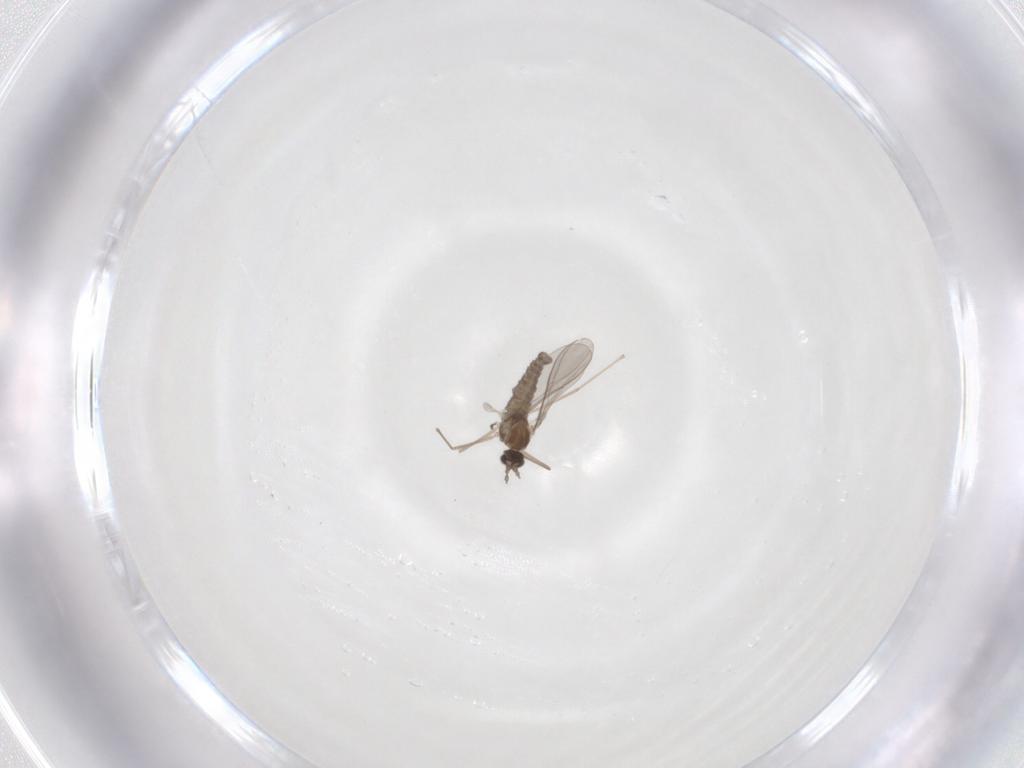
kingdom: Animalia
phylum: Arthropoda
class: Insecta
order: Diptera
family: Cecidomyiidae
